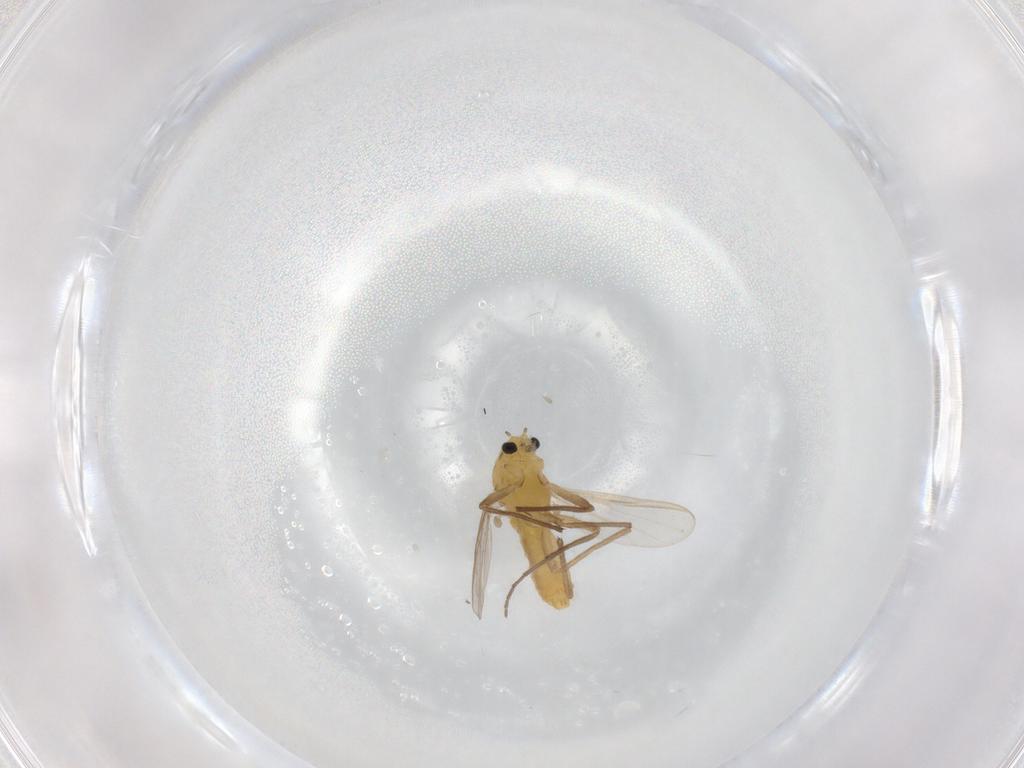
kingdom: Animalia
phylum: Arthropoda
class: Insecta
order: Diptera
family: Chironomidae
